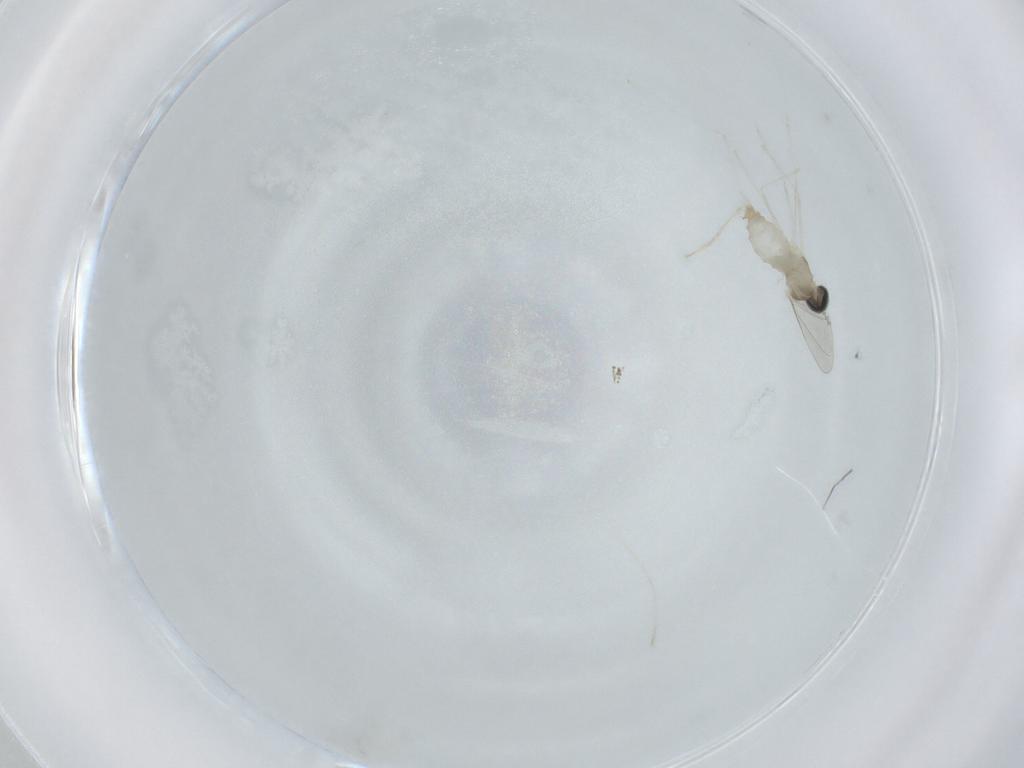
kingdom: Animalia
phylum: Arthropoda
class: Insecta
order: Diptera
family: Cecidomyiidae
